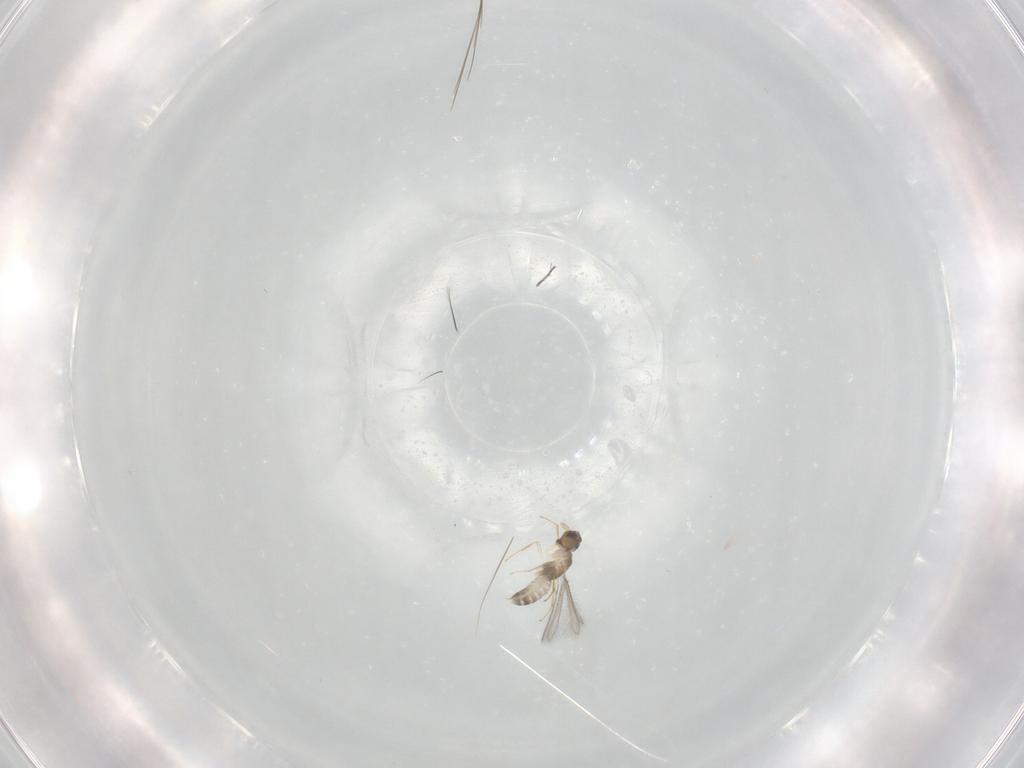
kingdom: Animalia
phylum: Arthropoda
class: Insecta
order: Hymenoptera
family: Mymaridae
